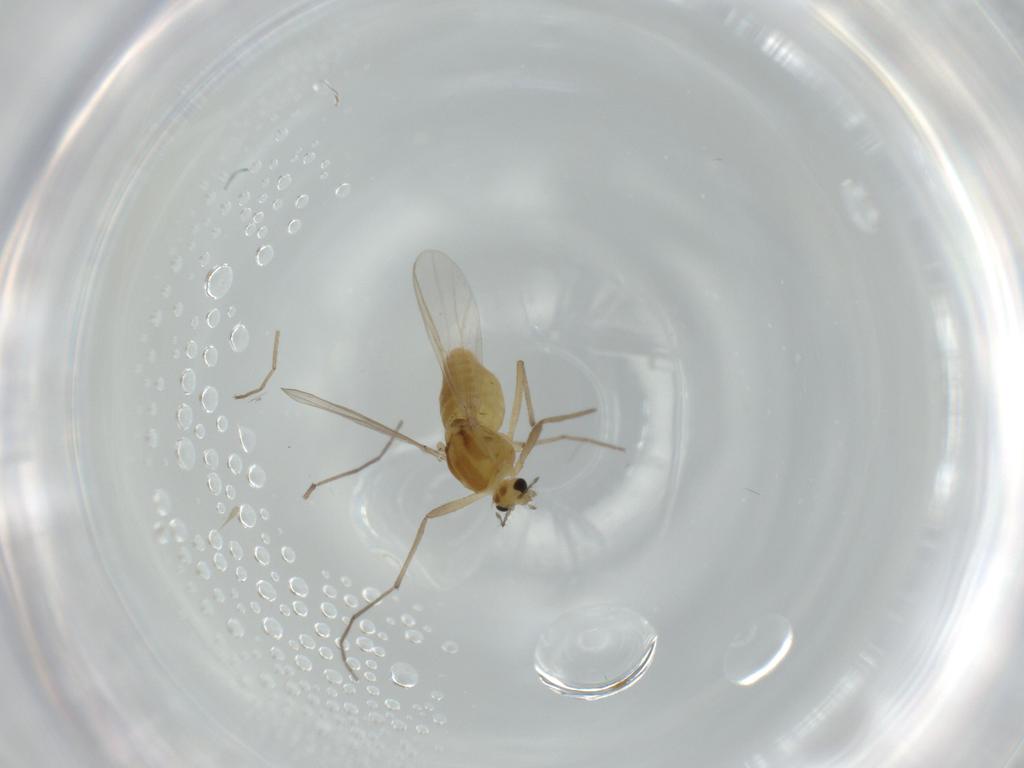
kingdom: Animalia
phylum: Arthropoda
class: Insecta
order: Diptera
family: Chironomidae
